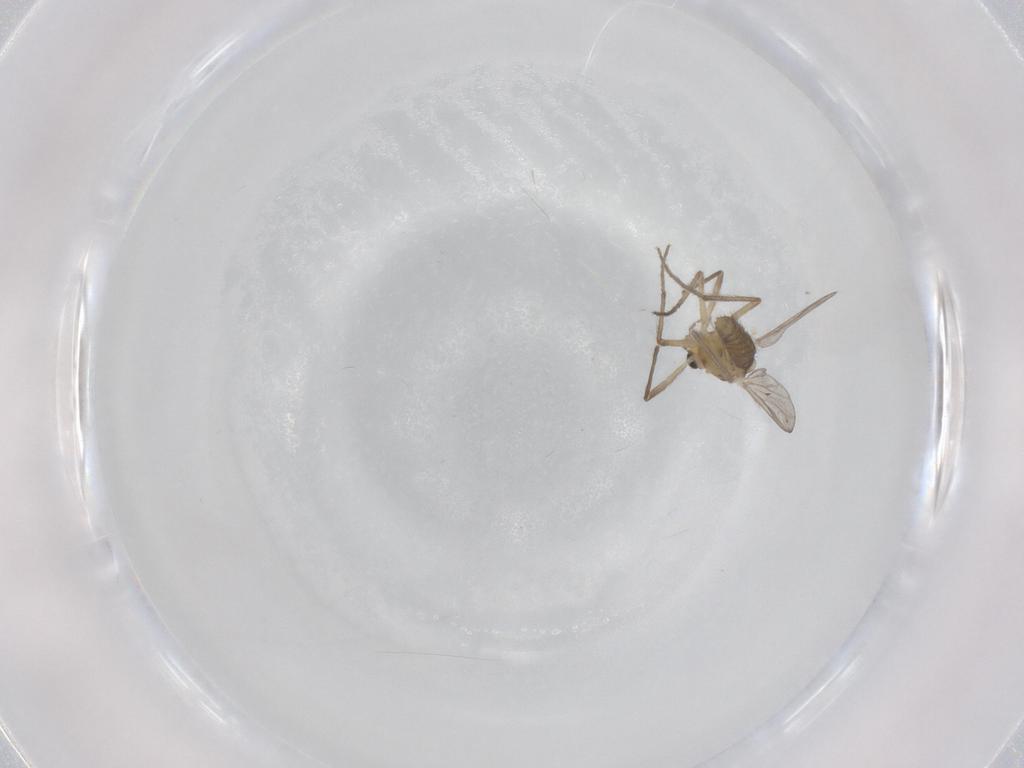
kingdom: Animalia
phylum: Arthropoda
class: Insecta
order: Diptera
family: Chironomidae
